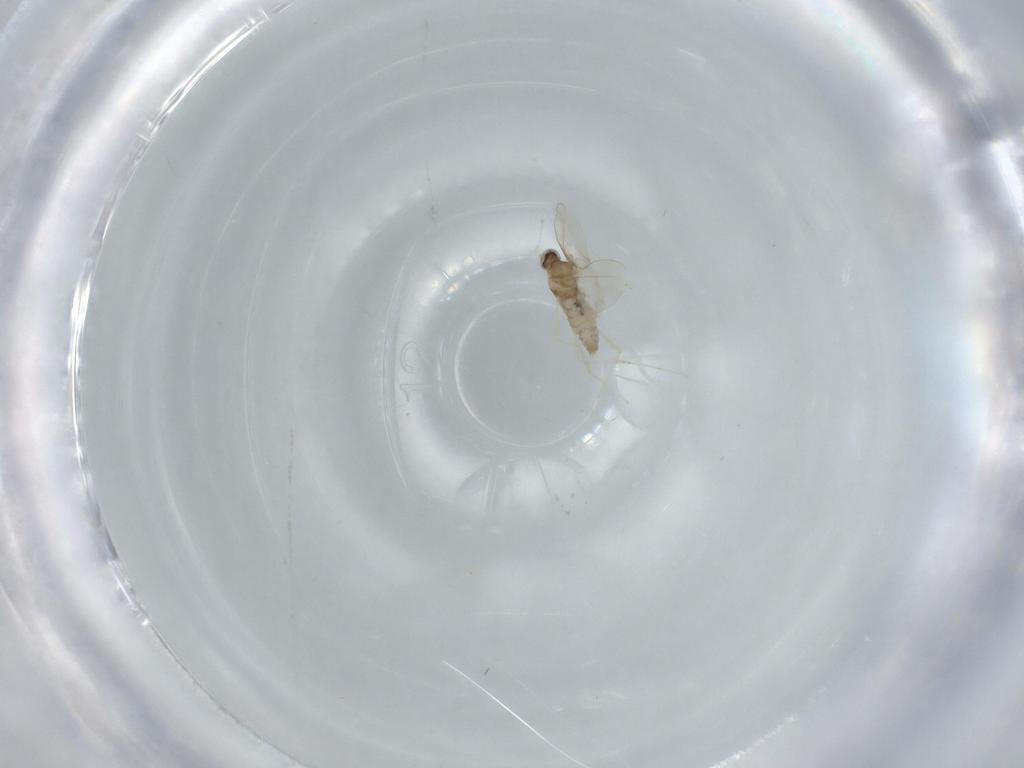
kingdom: Animalia
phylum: Arthropoda
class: Insecta
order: Diptera
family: Cecidomyiidae
